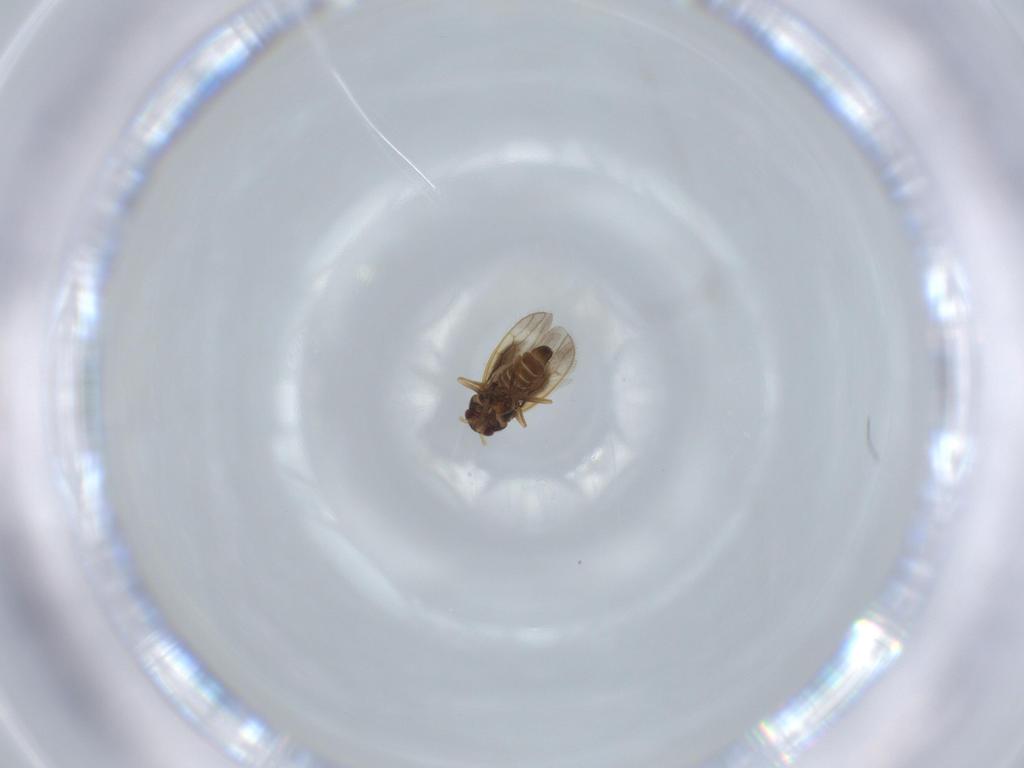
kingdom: Animalia
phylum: Arthropoda
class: Insecta
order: Hemiptera
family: Schizopteridae
